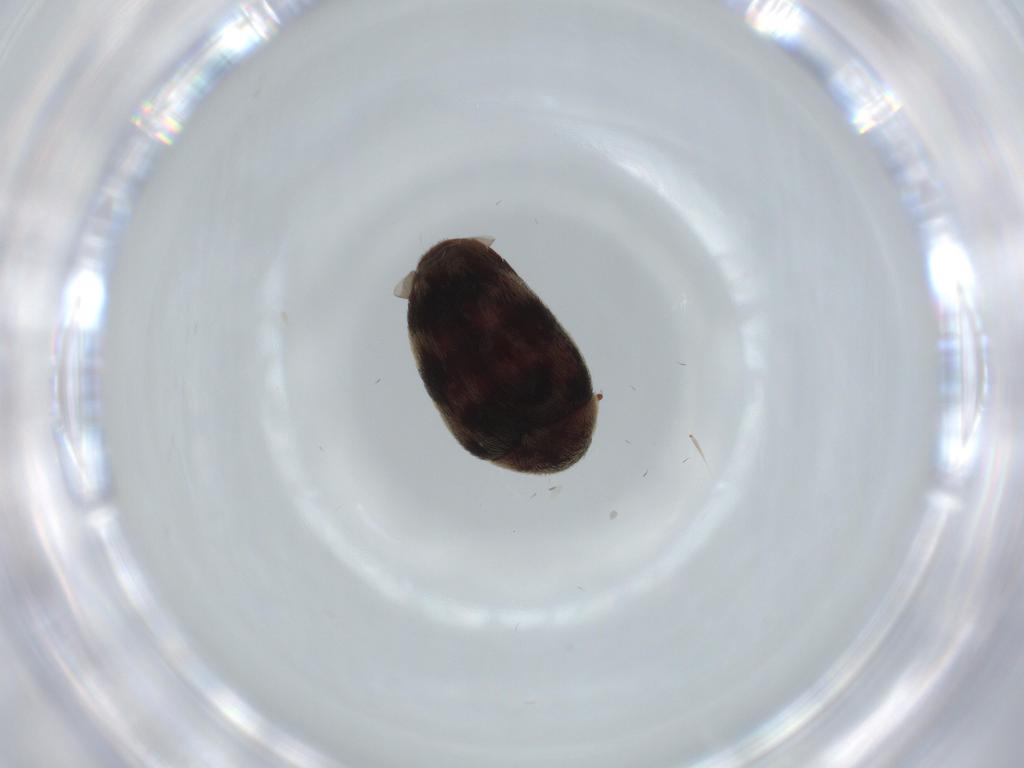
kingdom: Animalia
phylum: Arthropoda
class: Insecta
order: Coleoptera
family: Dermestidae
